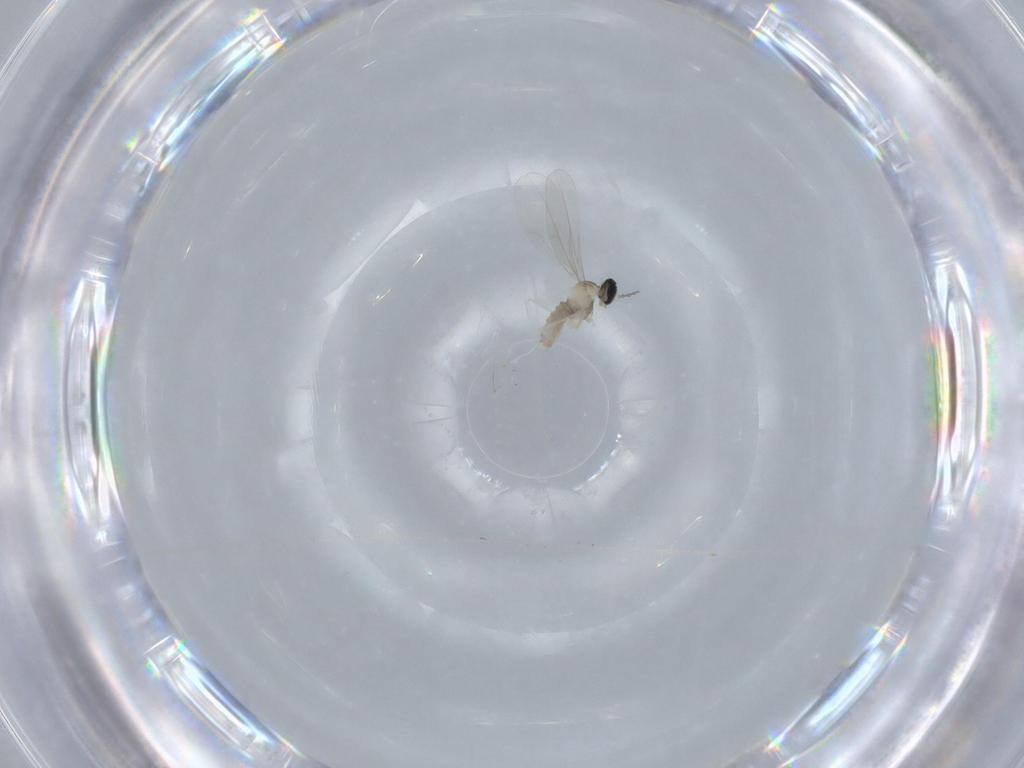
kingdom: Animalia
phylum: Arthropoda
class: Insecta
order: Diptera
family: Cecidomyiidae
